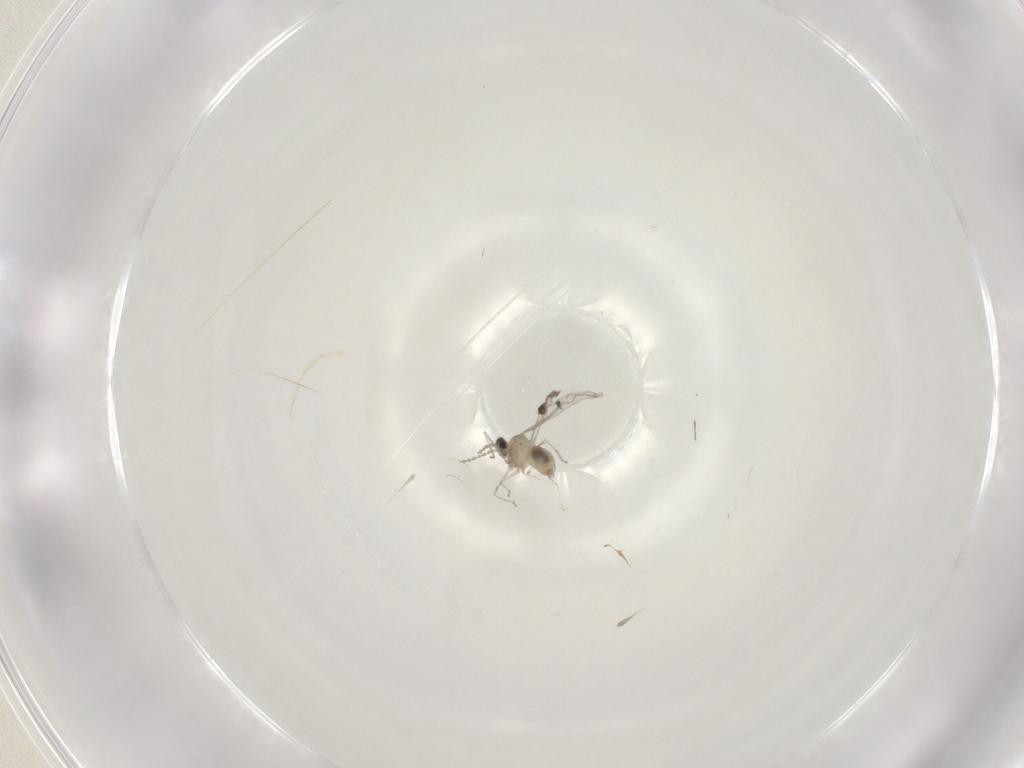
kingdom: Animalia
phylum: Arthropoda
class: Insecta
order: Diptera
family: Cecidomyiidae
